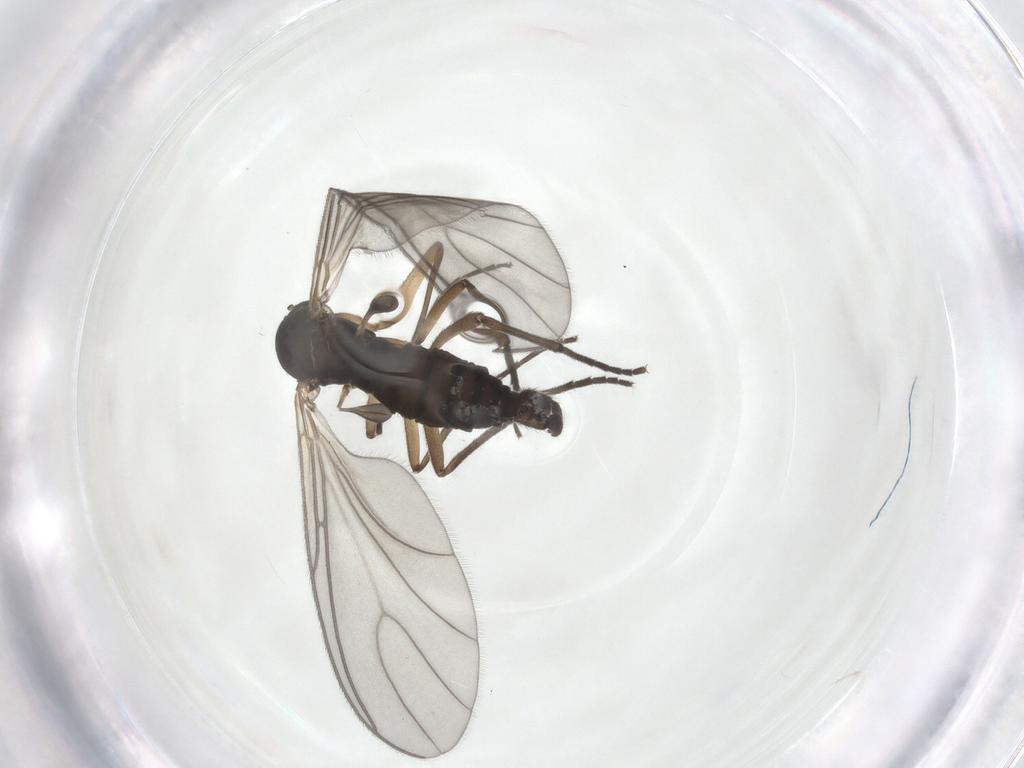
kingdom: Animalia
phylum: Arthropoda
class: Insecta
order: Diptera
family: Sciaridae
